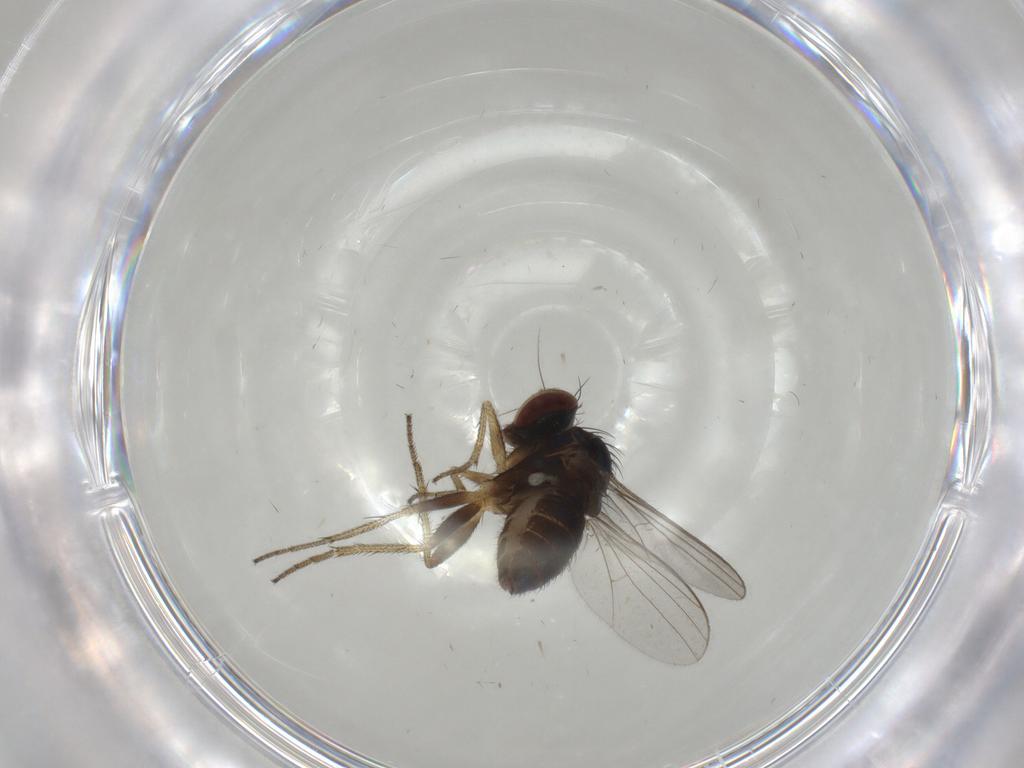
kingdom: Animalia
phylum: Arthropoda
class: Insecta
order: Diptera
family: Dolichopodidae
